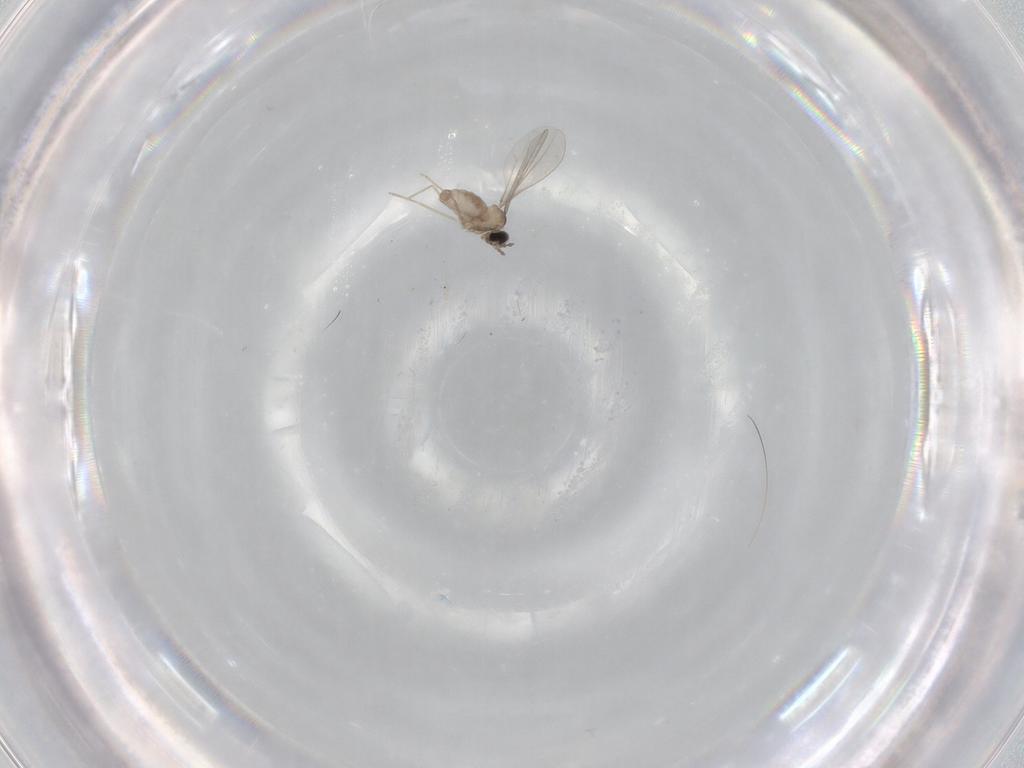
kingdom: Animalia
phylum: Arthropoda
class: Insecta
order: Diptera
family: Cecidomyiidae
